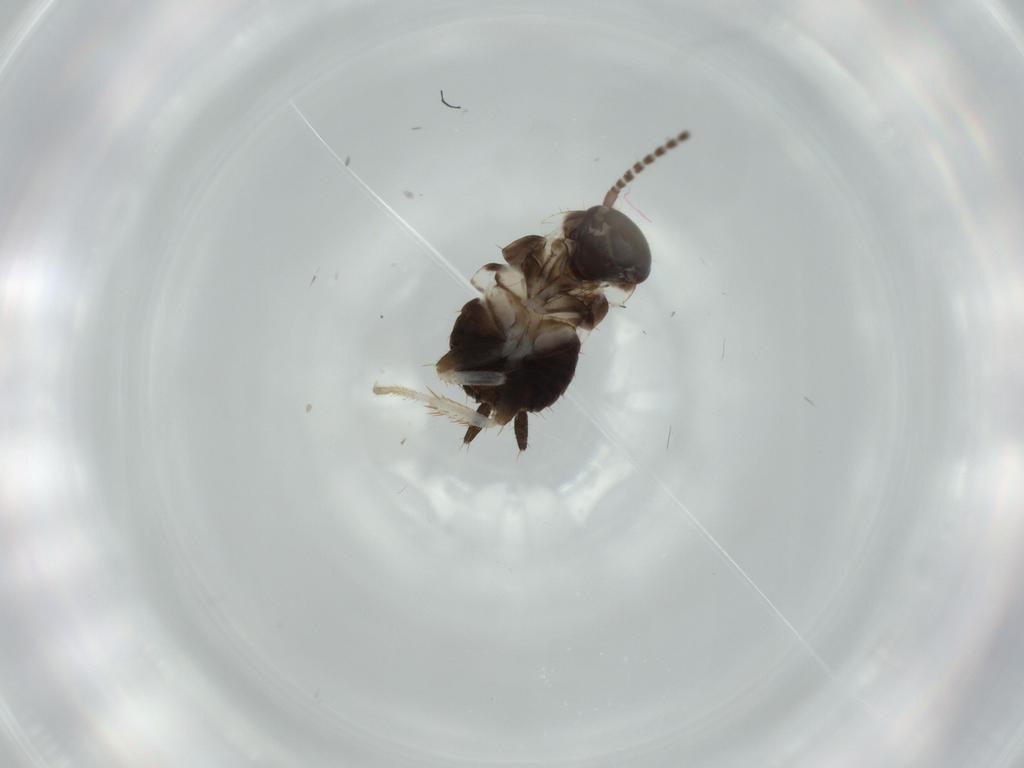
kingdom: Animalia
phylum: Arthropoda
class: Insecta
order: Blattodea
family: Ectobiidae
